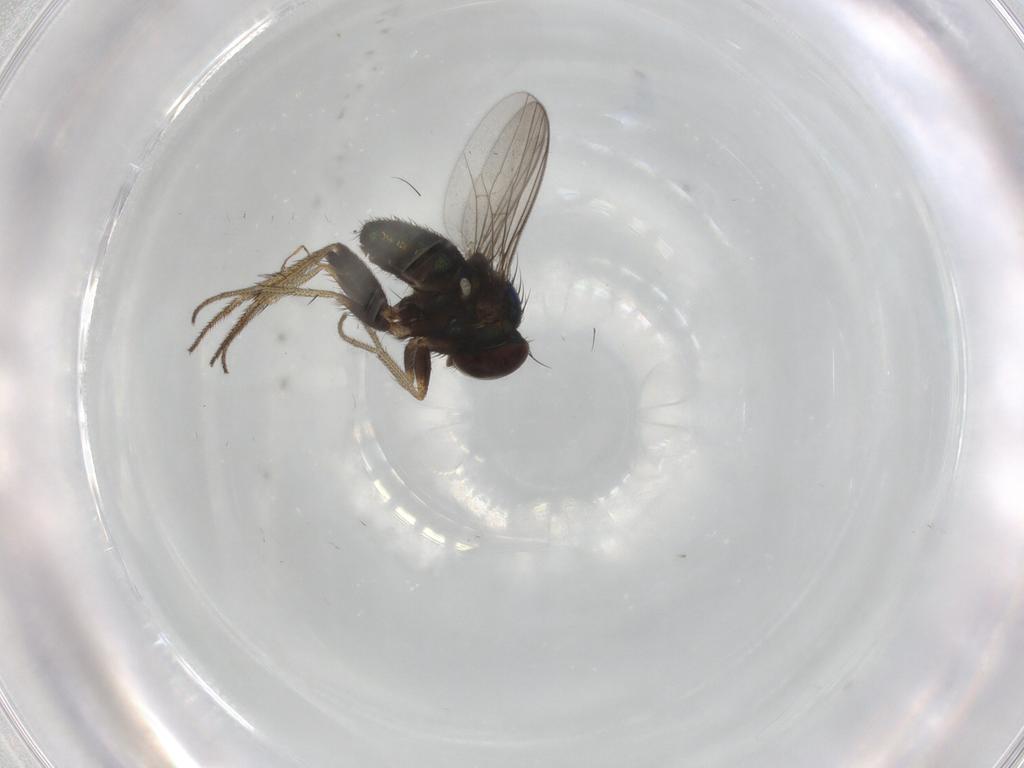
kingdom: Animalia
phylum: Arthropoda
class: Insecta
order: Diptera
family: Cecidomyiidae
